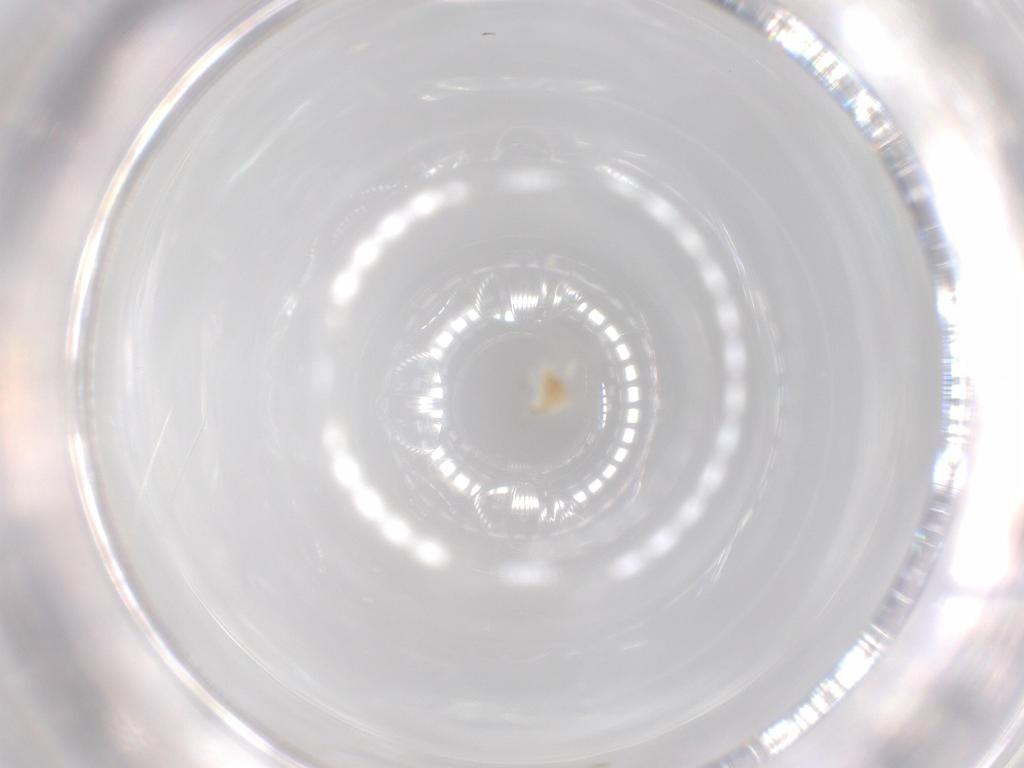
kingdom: Animalia
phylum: Arthropoda
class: Arachnida
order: Trombidiformes
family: Eupodidae
